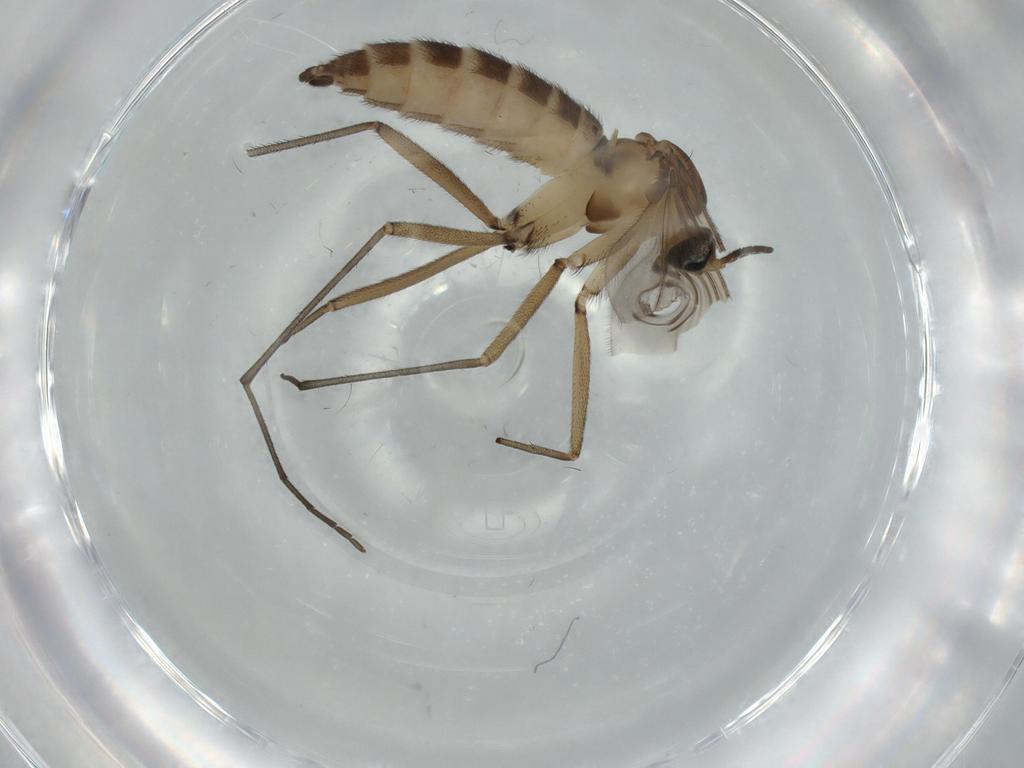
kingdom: Animalia
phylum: Arthropoda
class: Insecta
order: Diptera
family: Sciaridae
